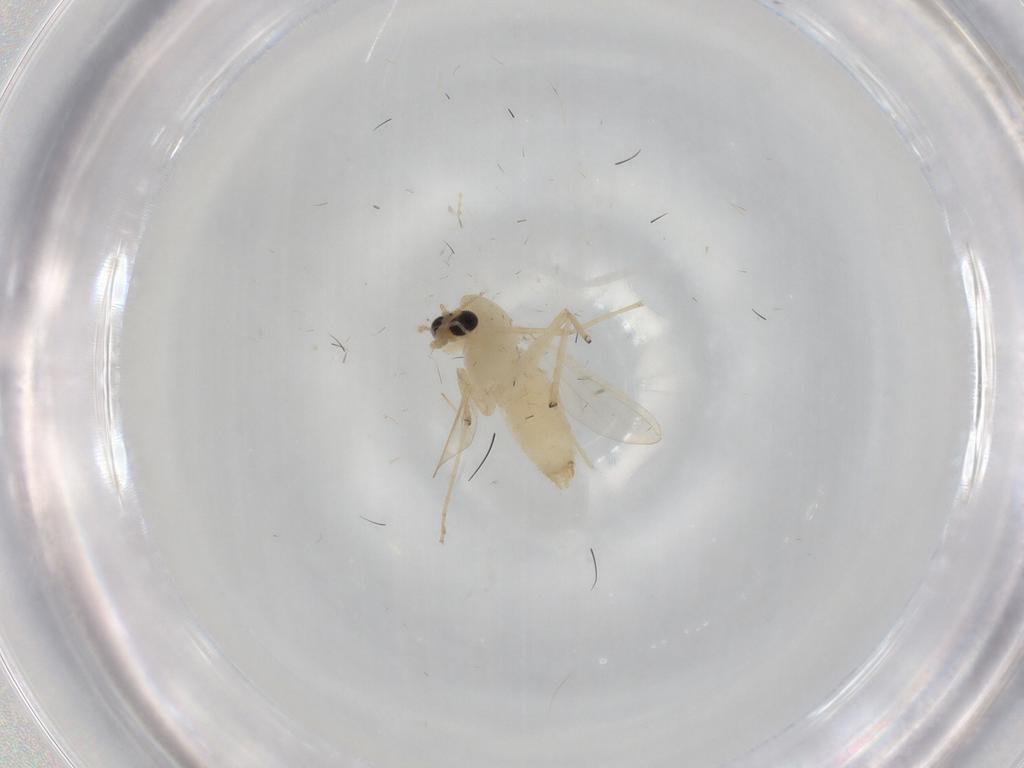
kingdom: Animalia
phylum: Arthropoda
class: Insecta
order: Diptera
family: Chironomidae
